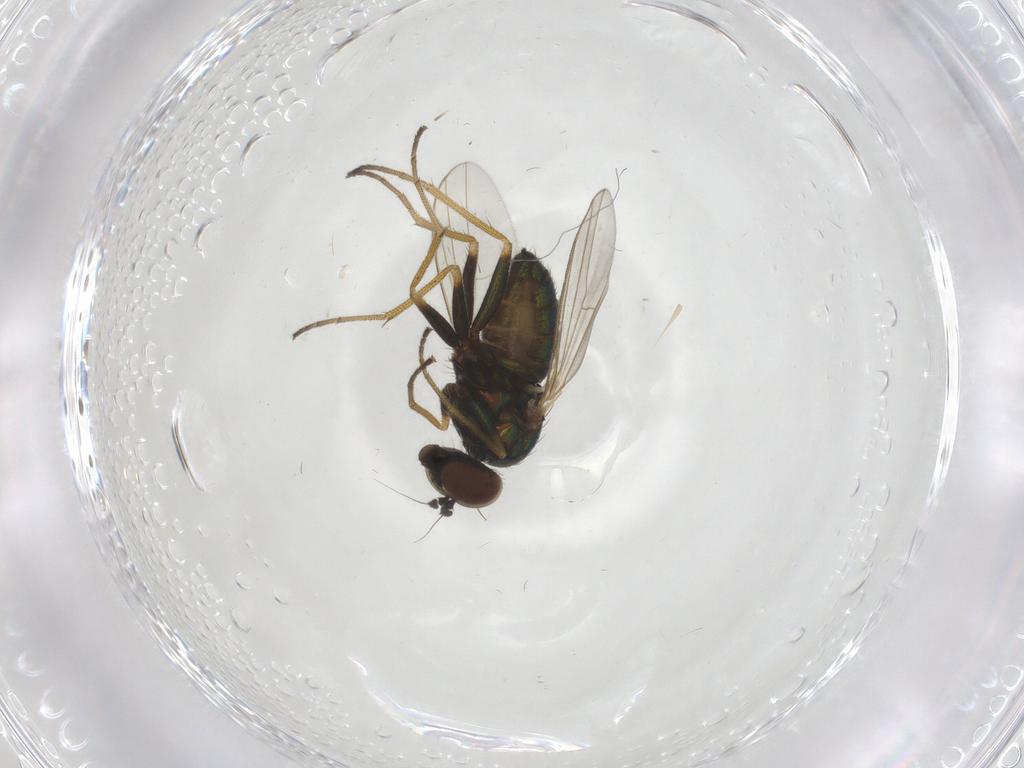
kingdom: Animalia
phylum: Arthropoda
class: Insecta
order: Diptera
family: Dolichopodidae
